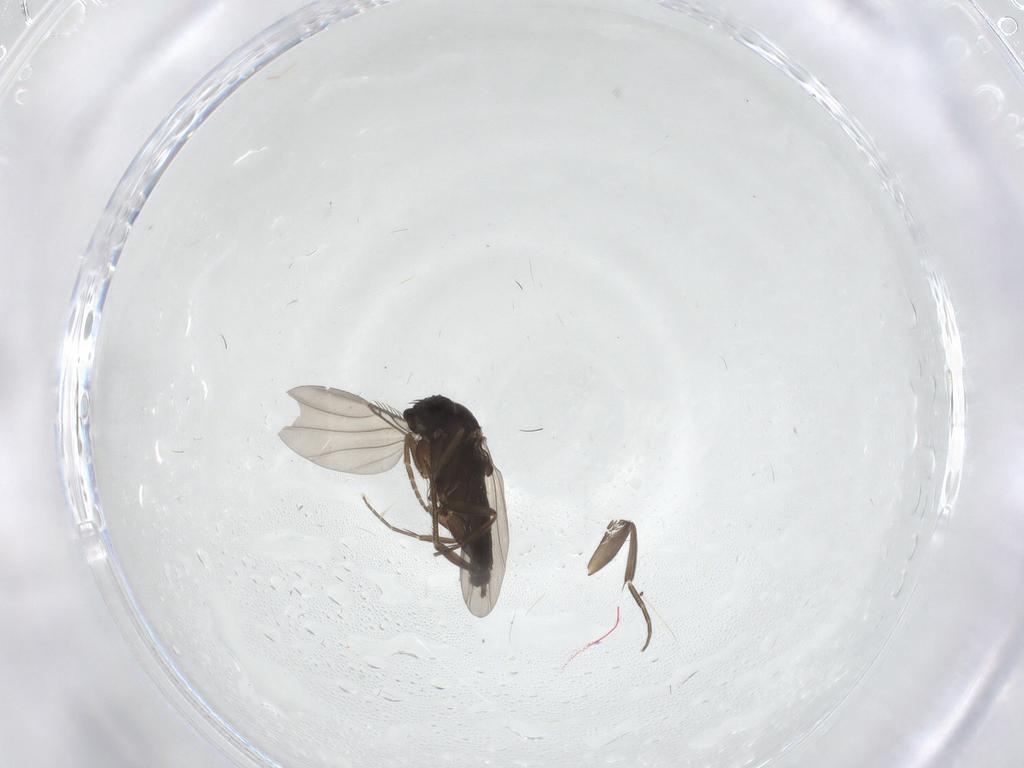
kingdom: Animalia
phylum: Arthropoda
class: Insecta
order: Diptera
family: Phoridae
